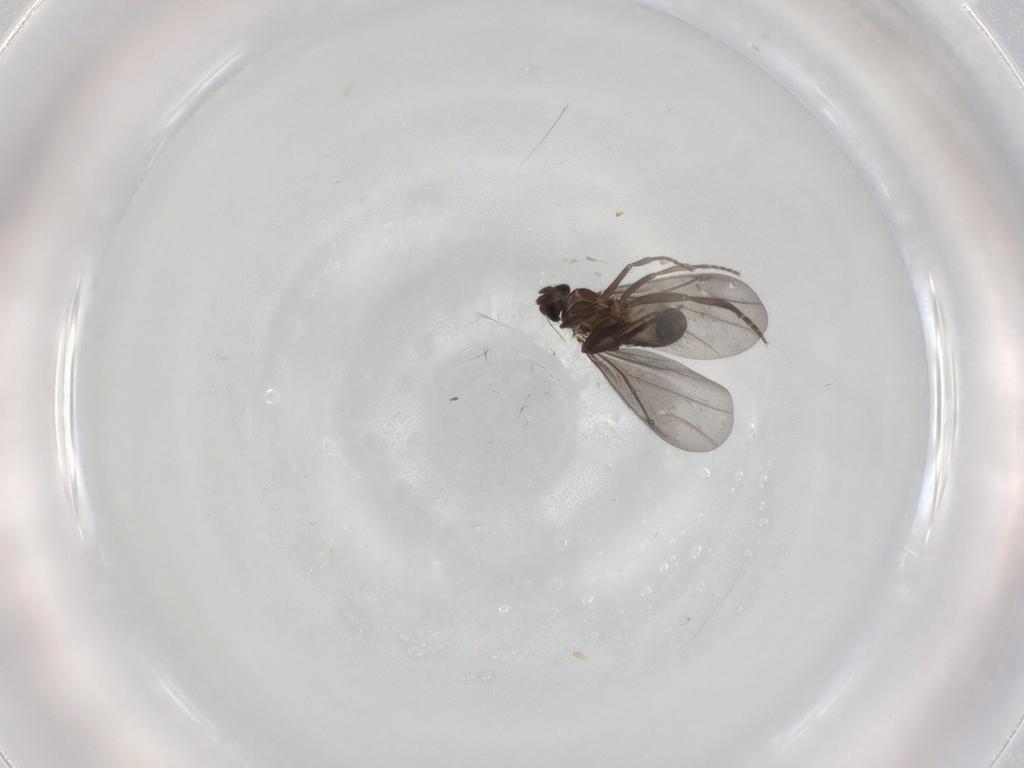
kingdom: Animalia
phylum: Arthropoda
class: Insecta
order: Diptera
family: Phoridae
